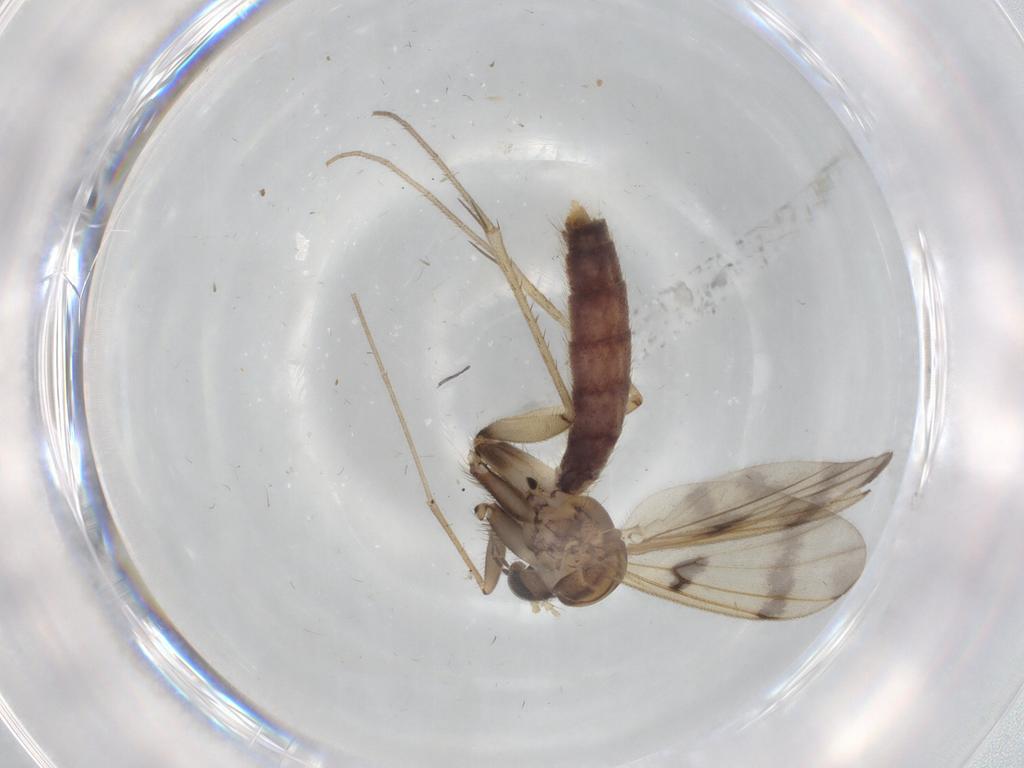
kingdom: Animalia
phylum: Arthropoda
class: Insecta
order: Diptera
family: Mycetophilidae
